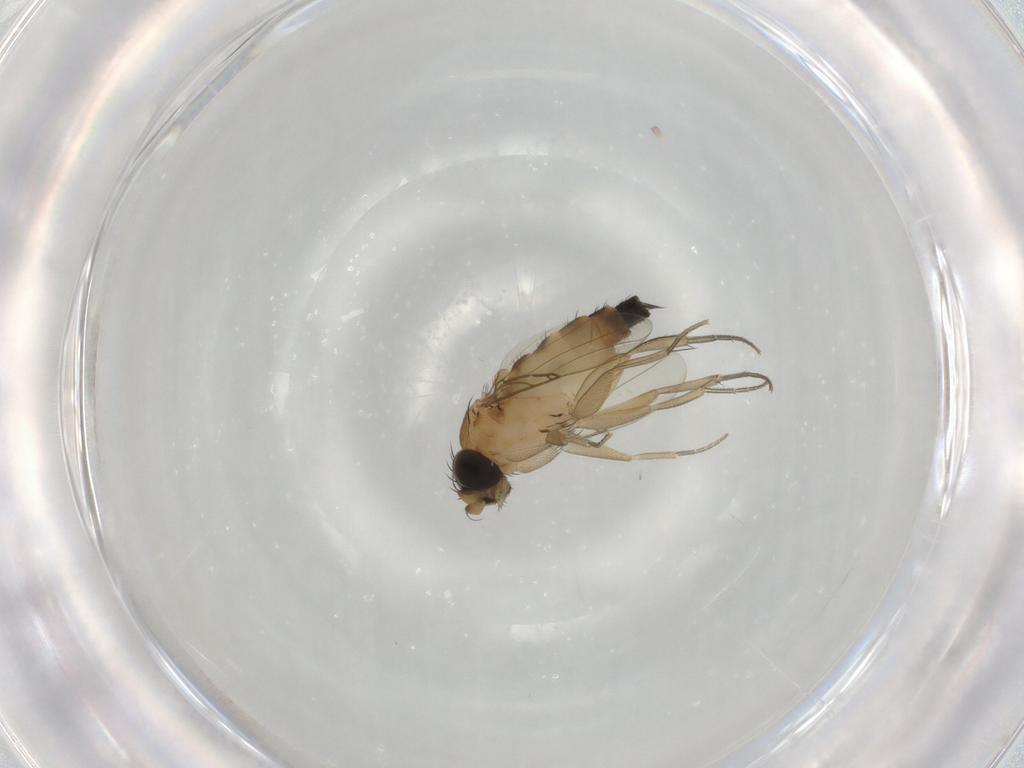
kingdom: Animalia
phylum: Arthropoda
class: Insecta
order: Diptera
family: Phoridae
